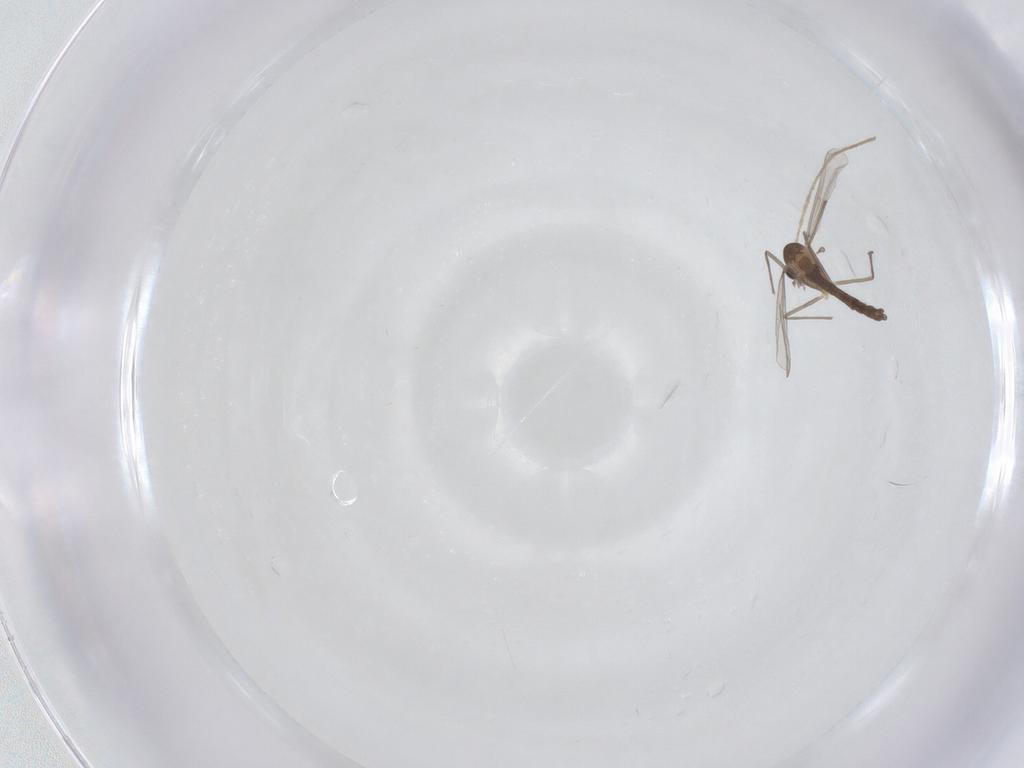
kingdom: Animalia
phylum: Arthropoda
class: Insecta
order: Diptera
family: Chironomidae
